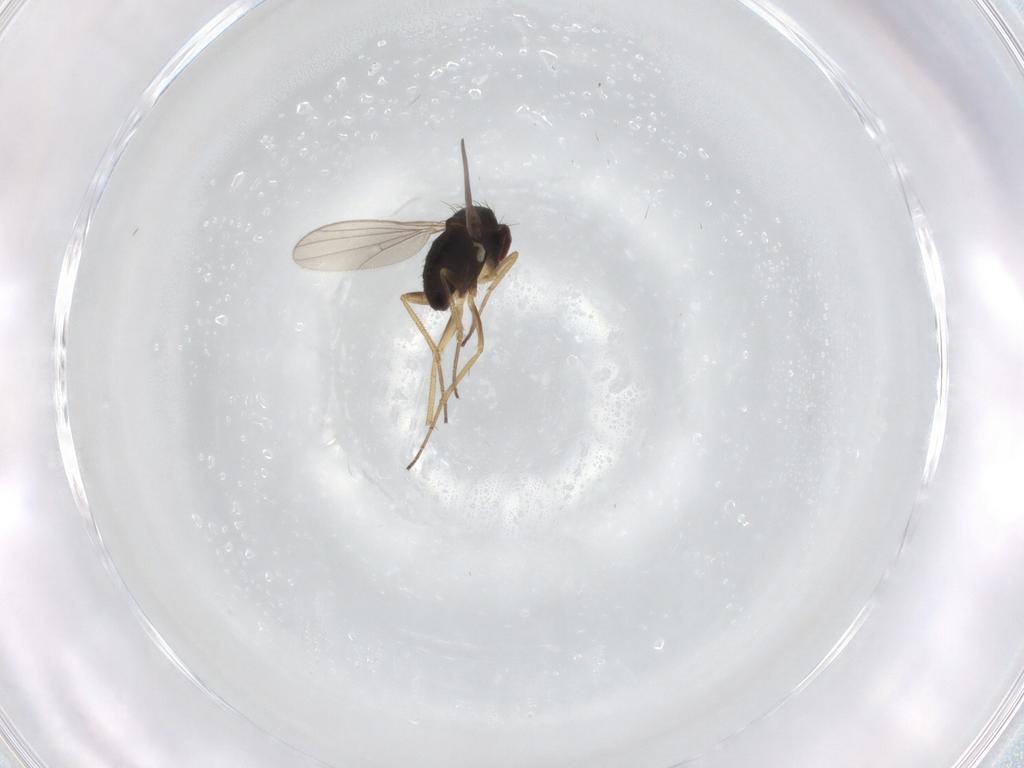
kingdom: Animalia
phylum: Arthropoda
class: Insecta
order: Diptera
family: Dolichopodidae
